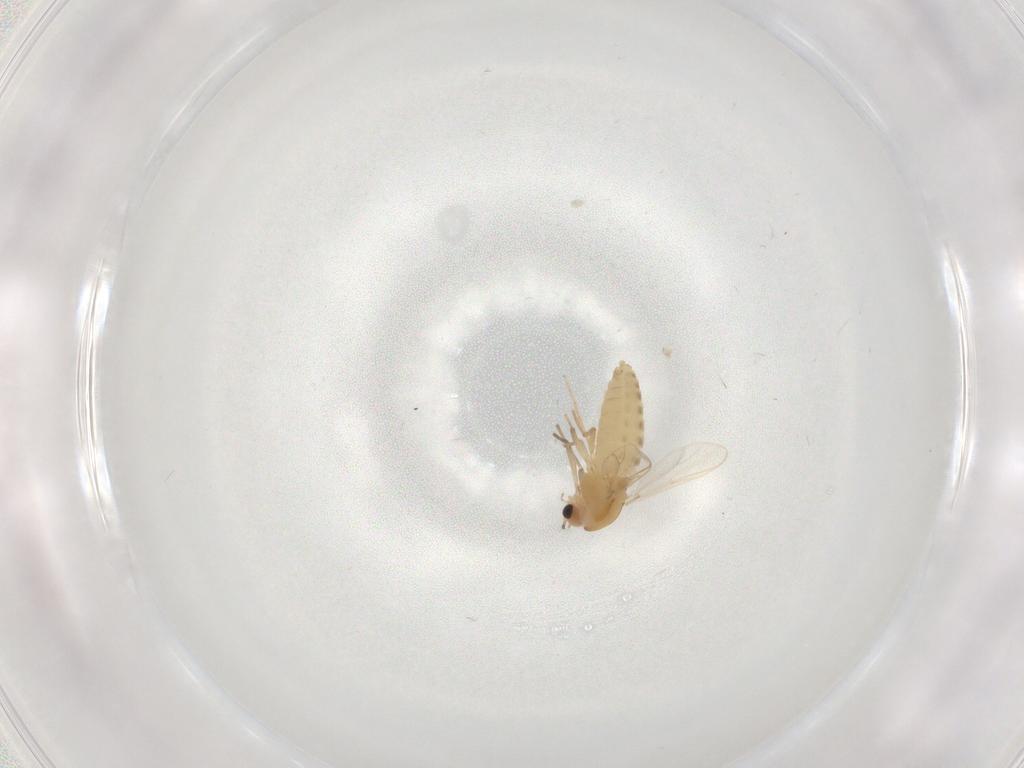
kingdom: Animalia
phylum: Arthropoda
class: Insecta
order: Diptera
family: Chironomidae
